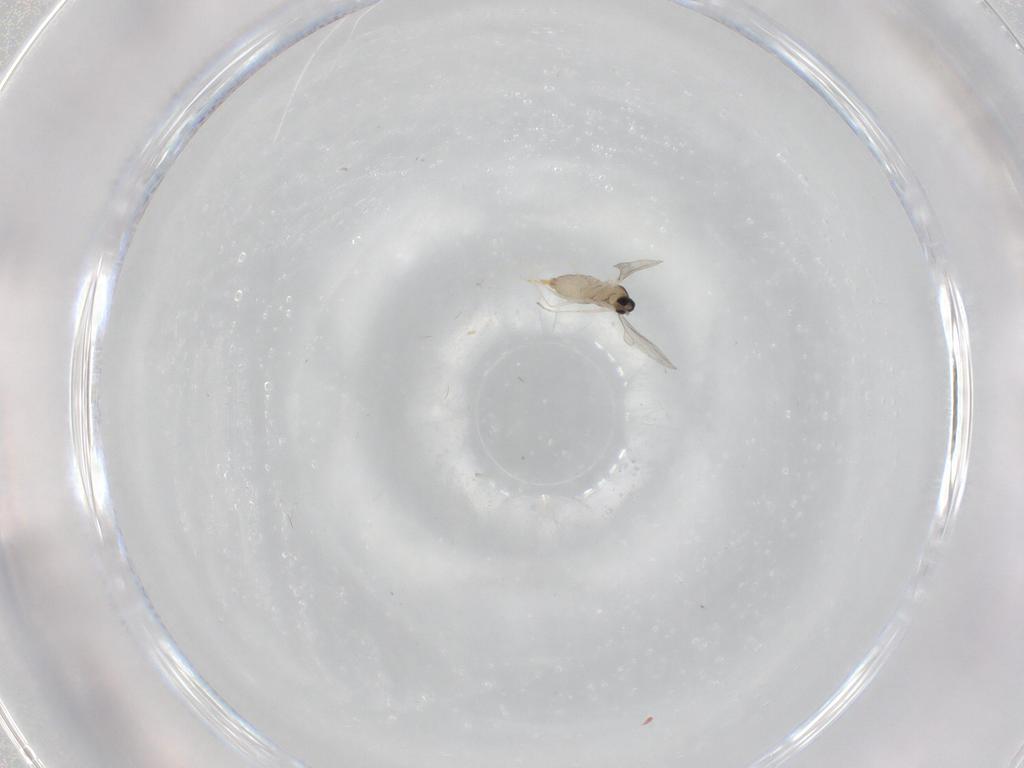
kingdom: Animalia
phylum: Arthropoda
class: Insecta
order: Diptera
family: Cecidomyiidae
